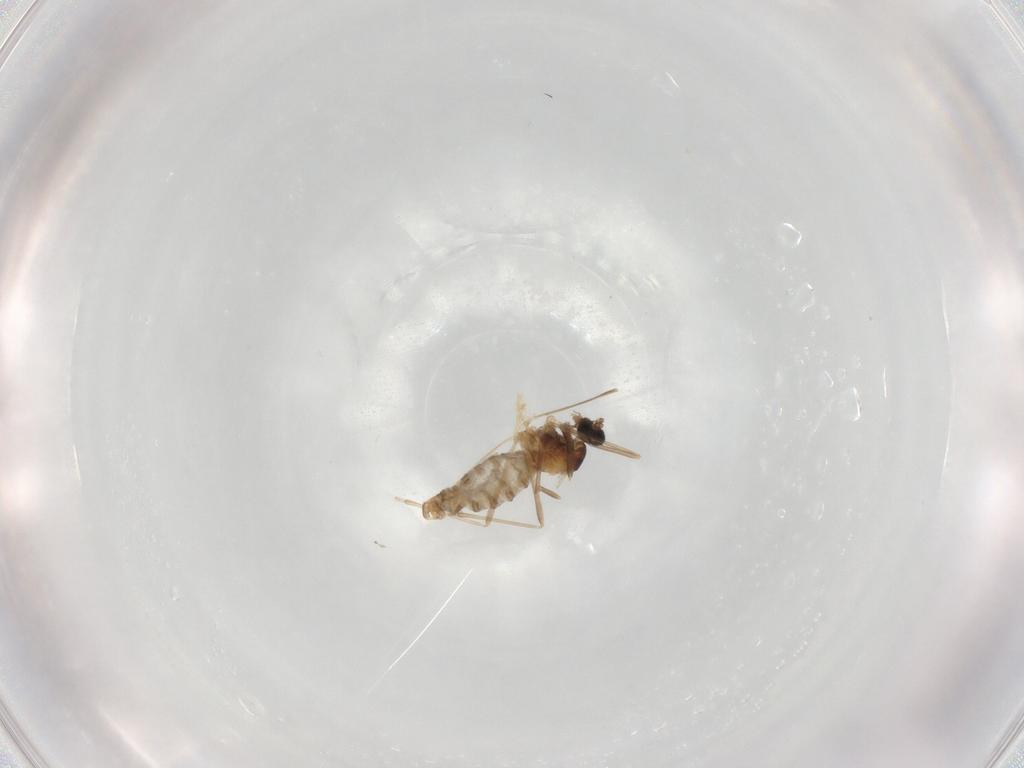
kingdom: Animalia
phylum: Arthropoda
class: Insecta
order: Diptera
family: Cecidomyiidae
